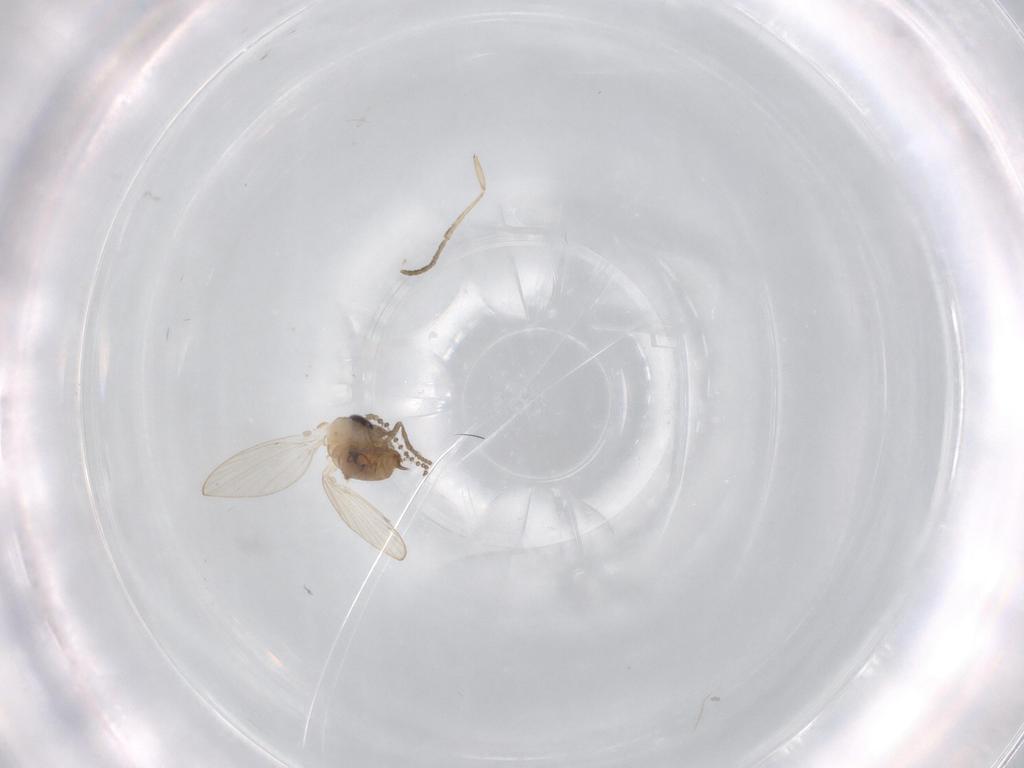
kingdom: Animalia
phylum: Arthropoda
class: Insecta
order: Diptera
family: Psychodidae
